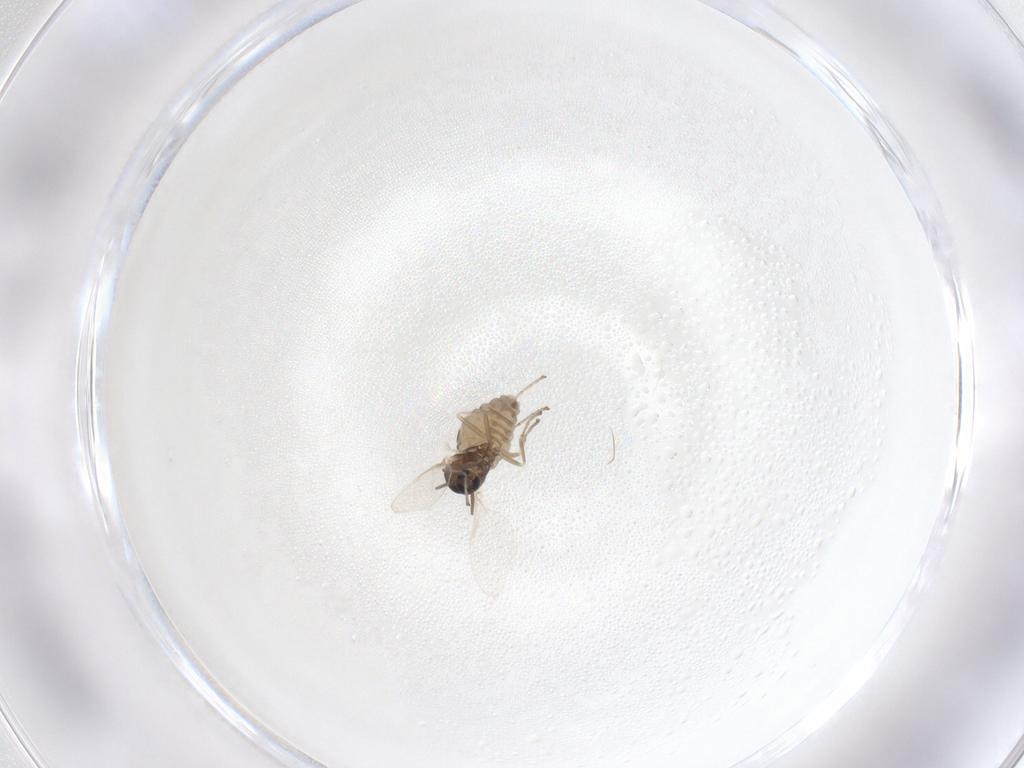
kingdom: Animalia
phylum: Arthropoda
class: Insecta
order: Diptera
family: Cecidomyiidae
